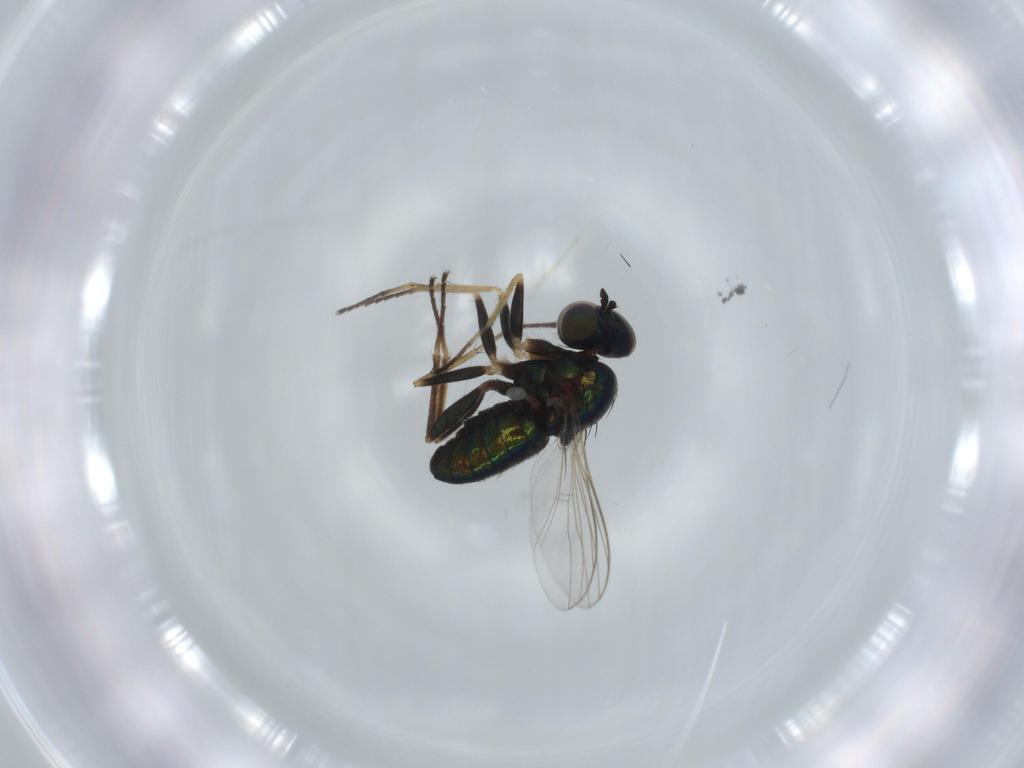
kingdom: Animalia
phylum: Arthropoda
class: Insecta
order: Diptera
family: Dolichopodidae
